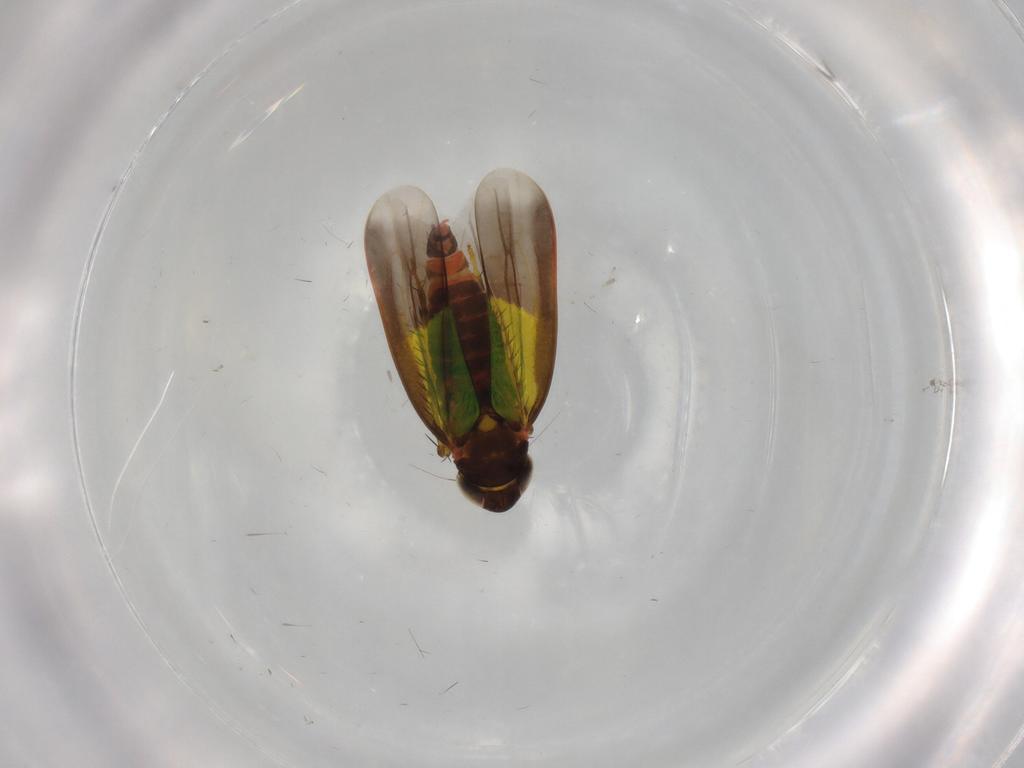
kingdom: Animalia
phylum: Arthropoda
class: Insecta
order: Hemiptera
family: Cicadellidae
